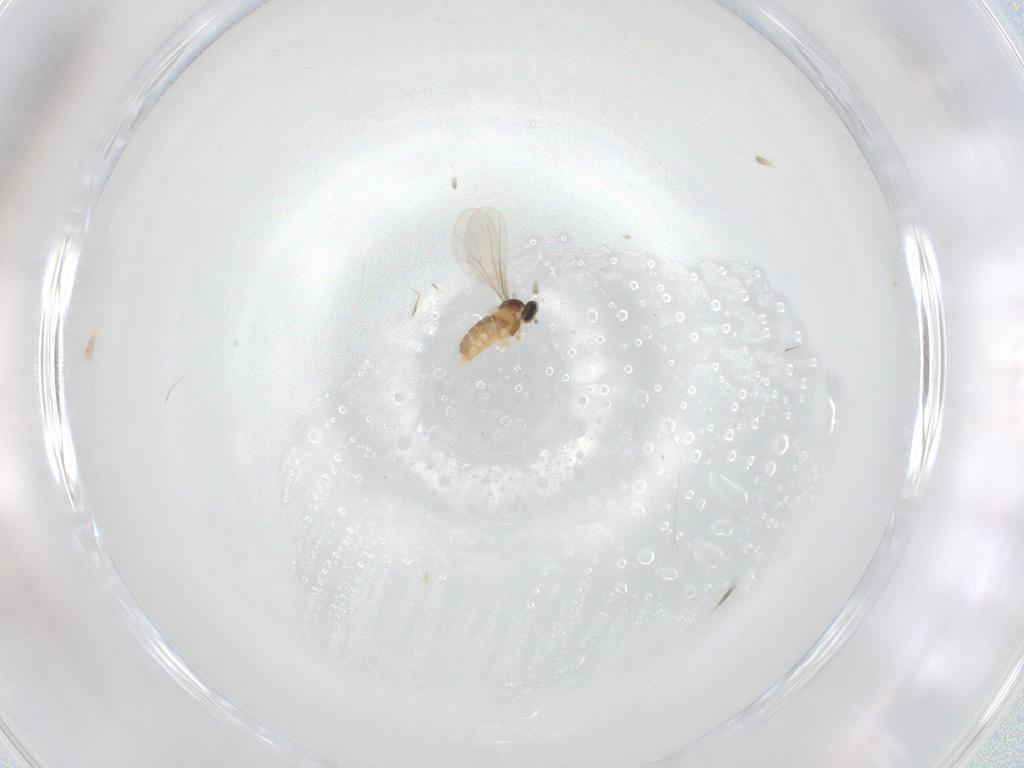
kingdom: Animalia
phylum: Arthropoda
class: Insecta
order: Diptera
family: Cecidomyiidae
